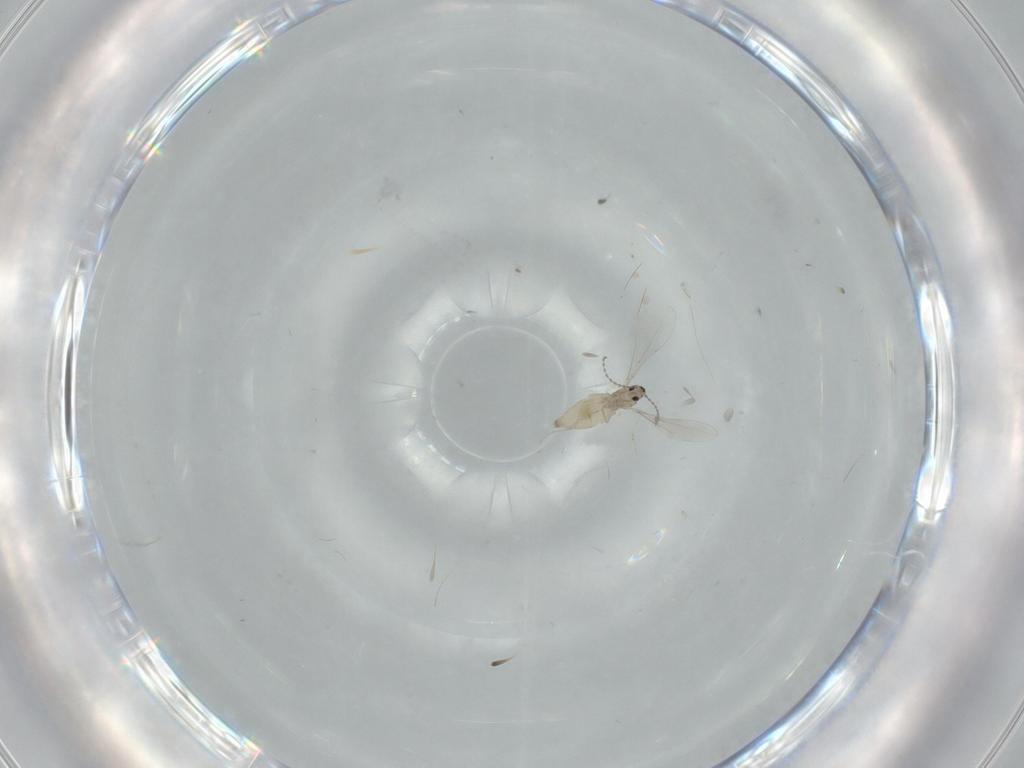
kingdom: Animalia
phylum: Arthropoda
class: Insecta
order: Diptera
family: Cecidomyiidae
